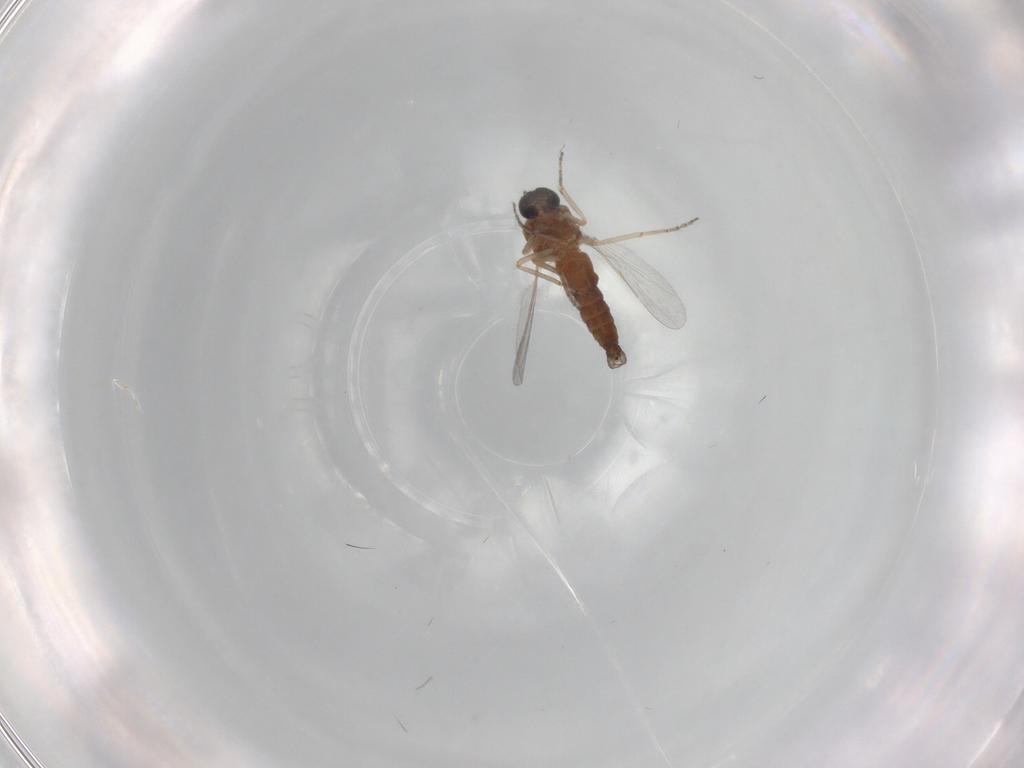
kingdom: Animalia
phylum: Arthropoda
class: Insecta
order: Diptera
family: Ceratopogonidae
